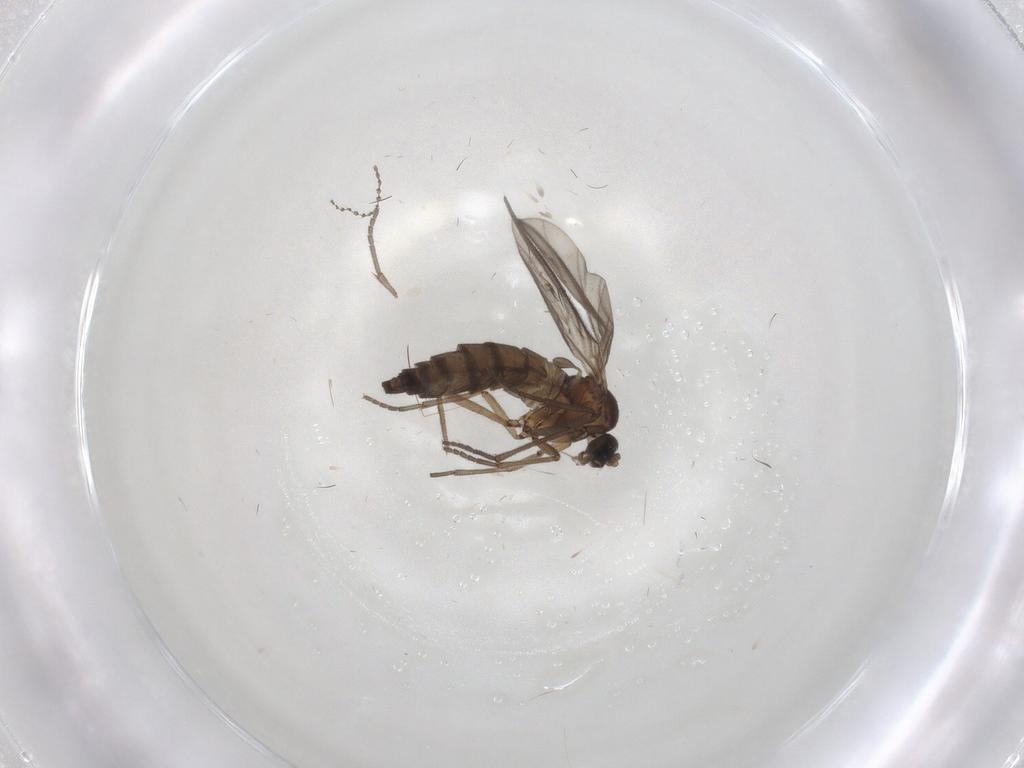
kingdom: Animalia
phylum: Arthropoda
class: Insecta
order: Diptera
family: Sciaridae
